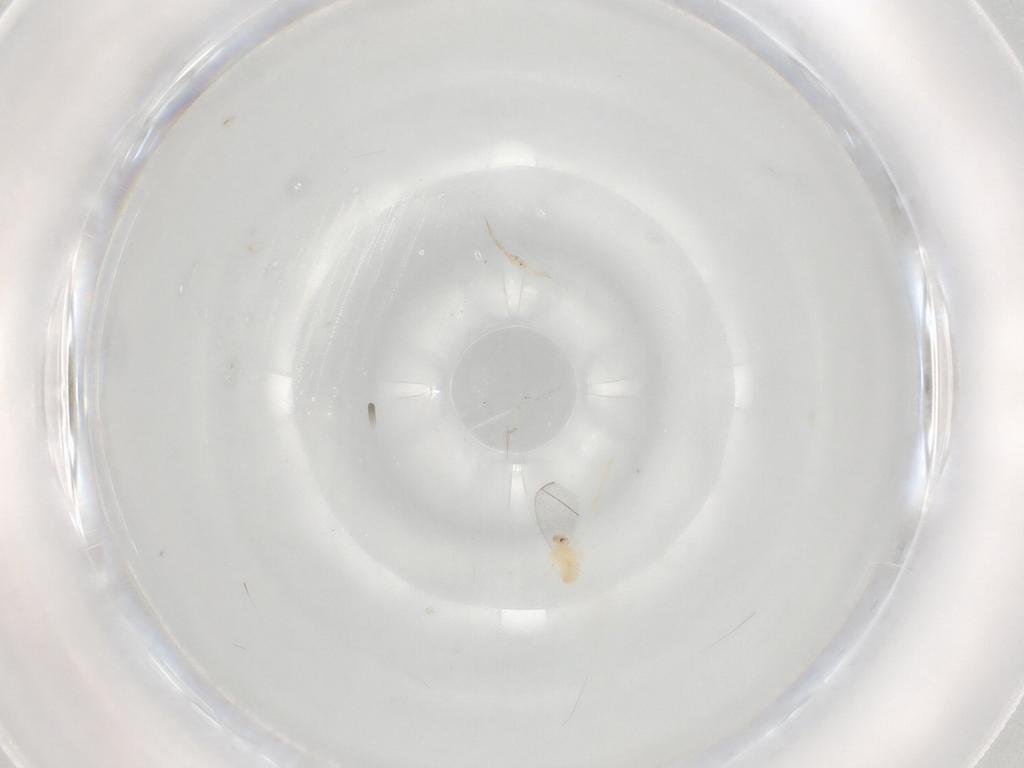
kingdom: Animalia
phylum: Arthropoda
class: Insecta
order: Diptera
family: Cecidomyiidae
